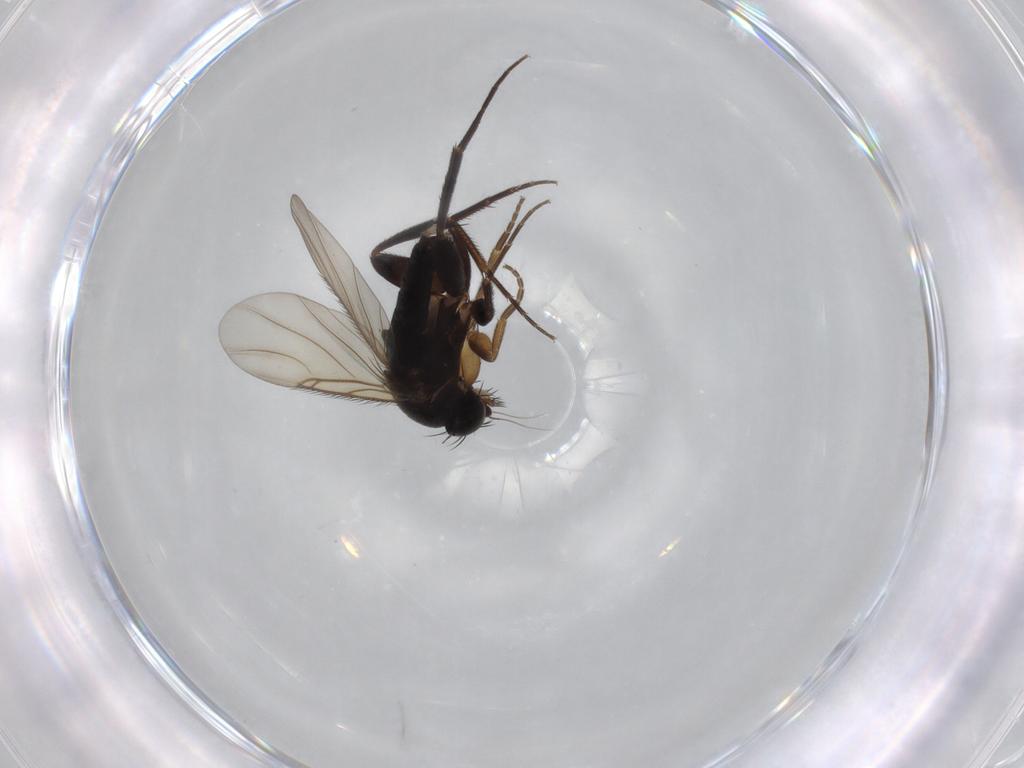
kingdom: Animalia
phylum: Arthropoda
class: Insecta
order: Diptera
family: Phoridae
